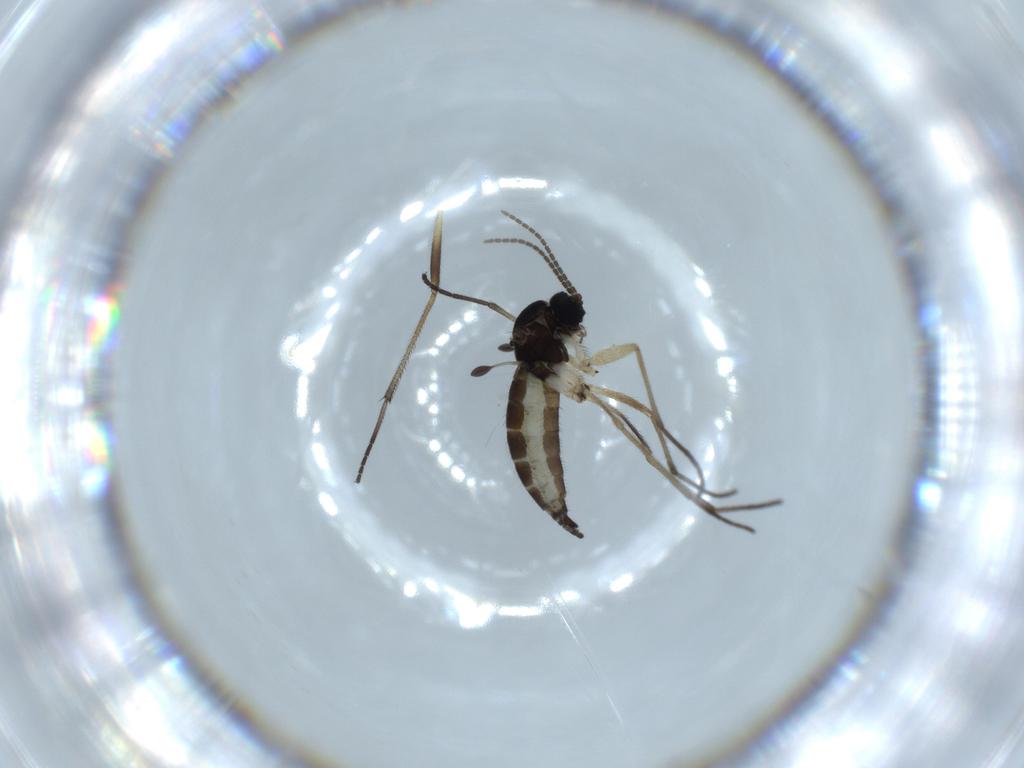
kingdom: Animalia
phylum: Arthropoda
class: Insecta
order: Diptera
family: Sciaridae
